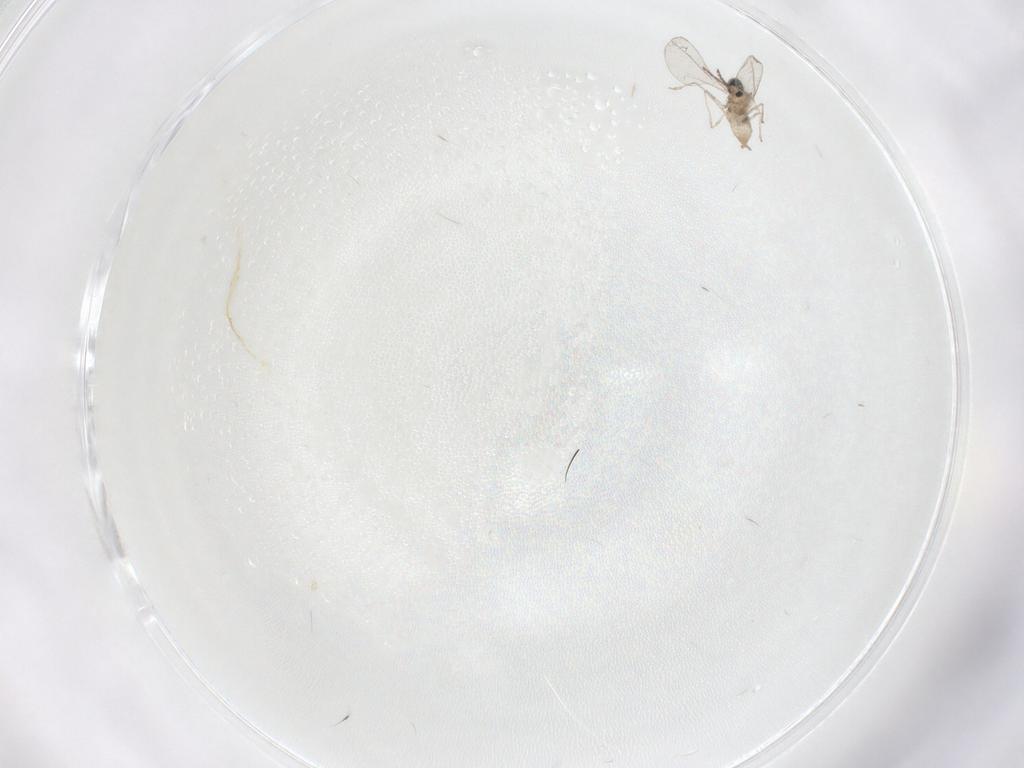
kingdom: Animalia
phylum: Arthropoda
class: Insecta
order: Diptera
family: Cecidomyiidae
